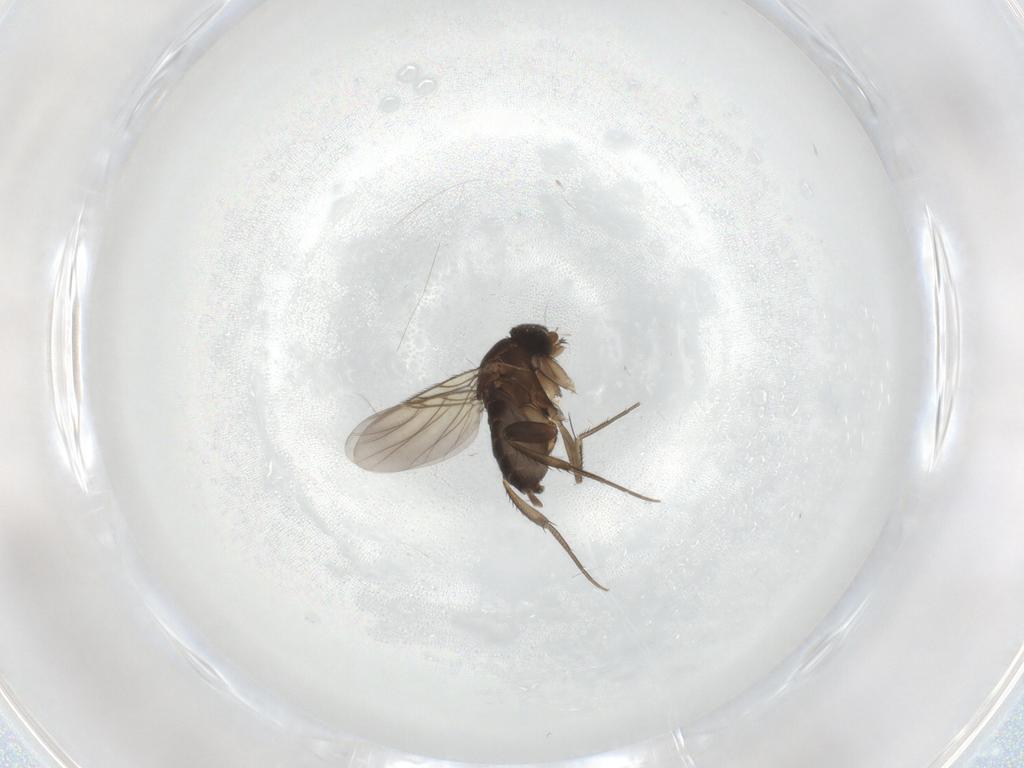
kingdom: Animalia
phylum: Arthropoda
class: Insecta
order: Diptera
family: Phoridae
